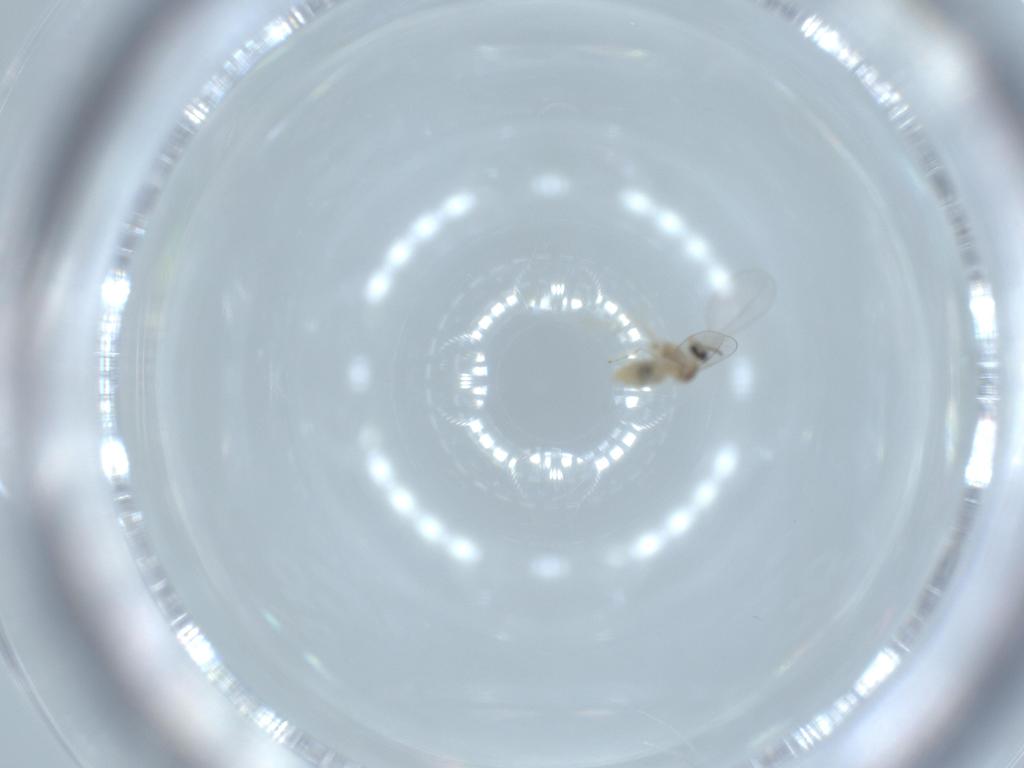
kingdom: Animalia
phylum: Arthropoda
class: Insecta
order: Diptera
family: Cecidomyiidae
